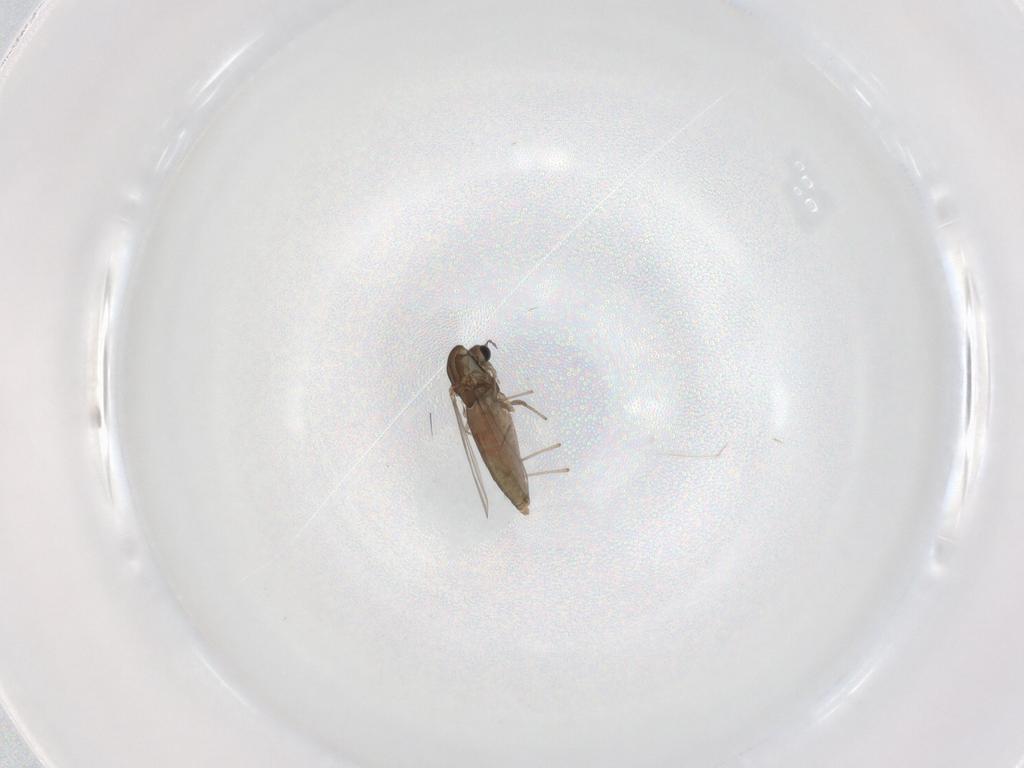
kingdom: Animalia
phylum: Arthropoda
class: Insecta
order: Diptera
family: Chironomidae
